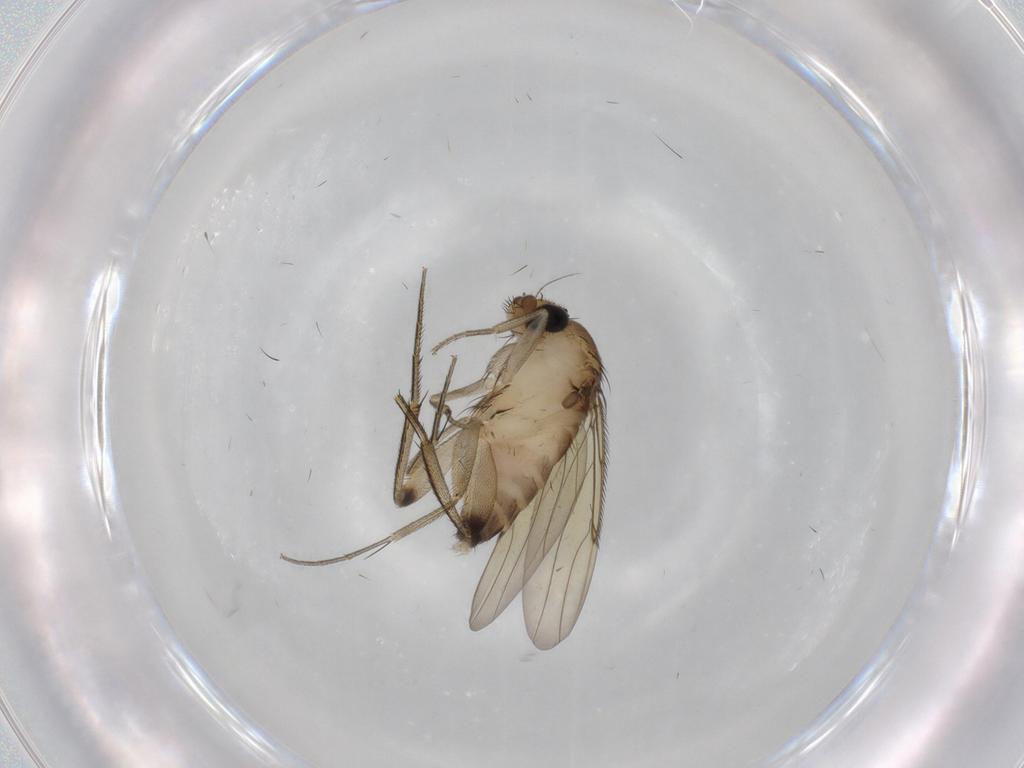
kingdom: Animalia
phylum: Arthropoda
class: Insecta
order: Diptera
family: Phoridae
